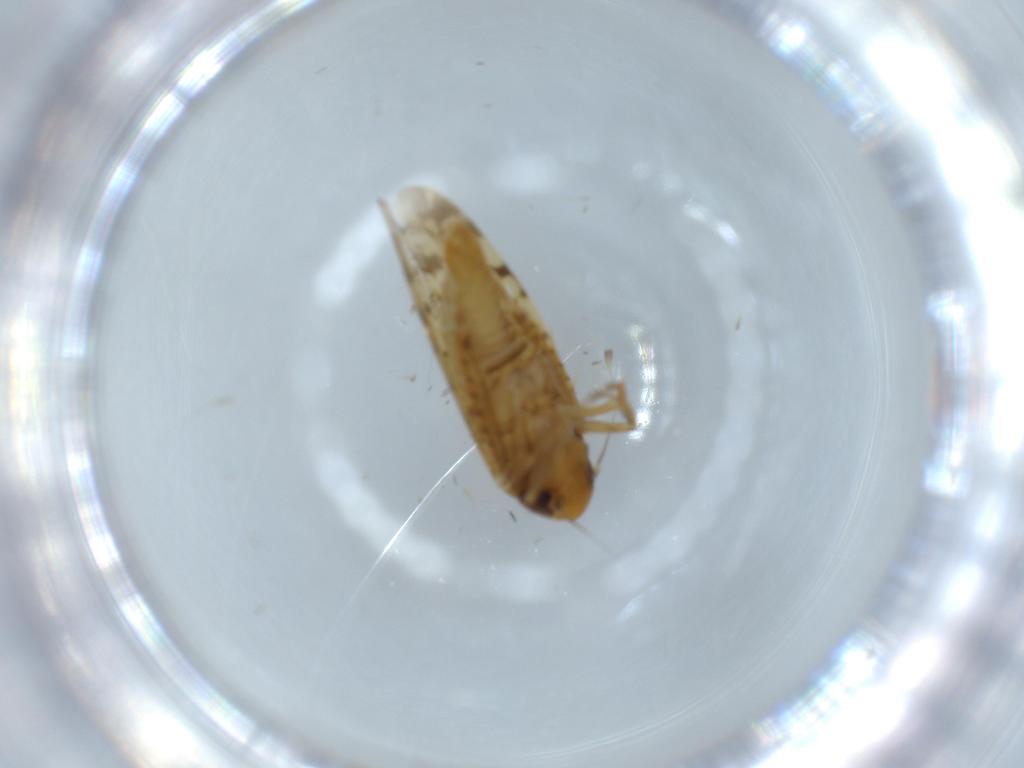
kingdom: Animalia
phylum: Arthropoda
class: Insecta
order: Hemiptera
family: Cicadellidae
